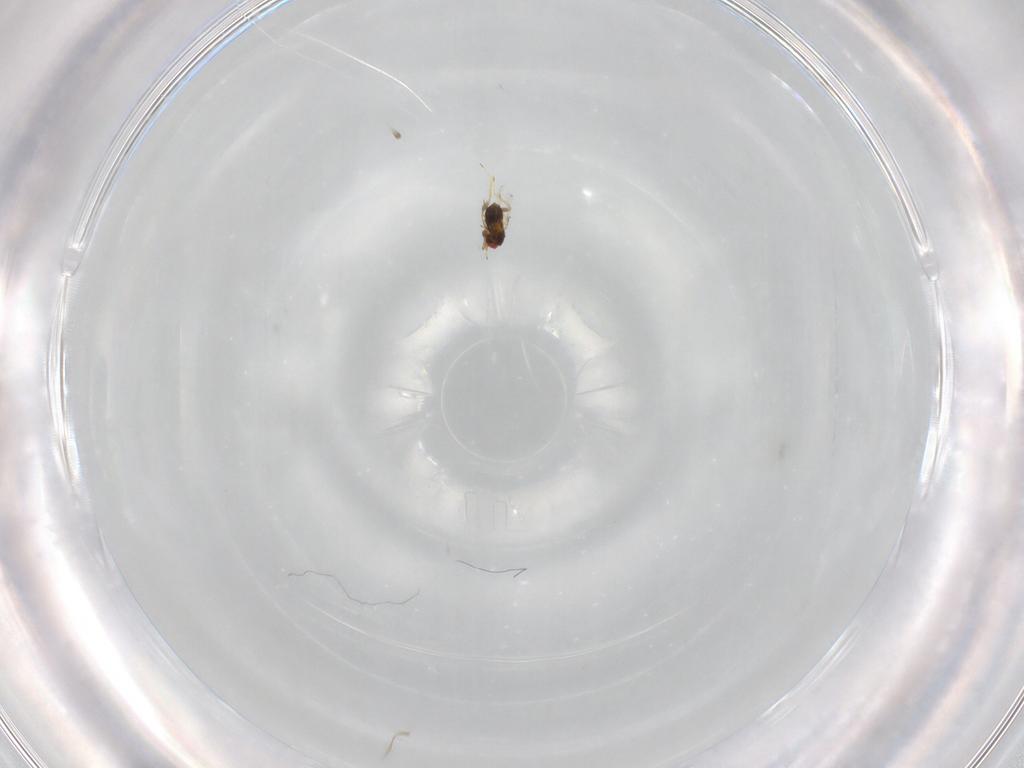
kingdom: Animalia
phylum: Arthropoda
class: Insecta
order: Hymenoptera
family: Trichogrammatidae
